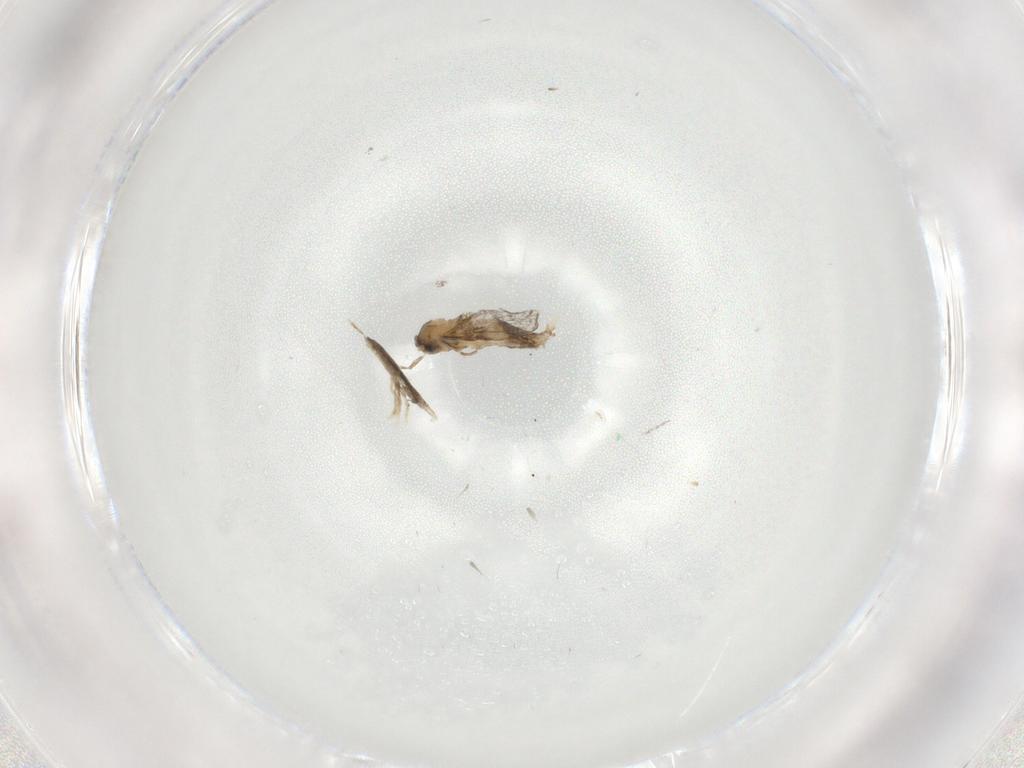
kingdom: Animalia
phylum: Arthropoda
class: Insecta
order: Diptera
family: Cecidomyiidae
